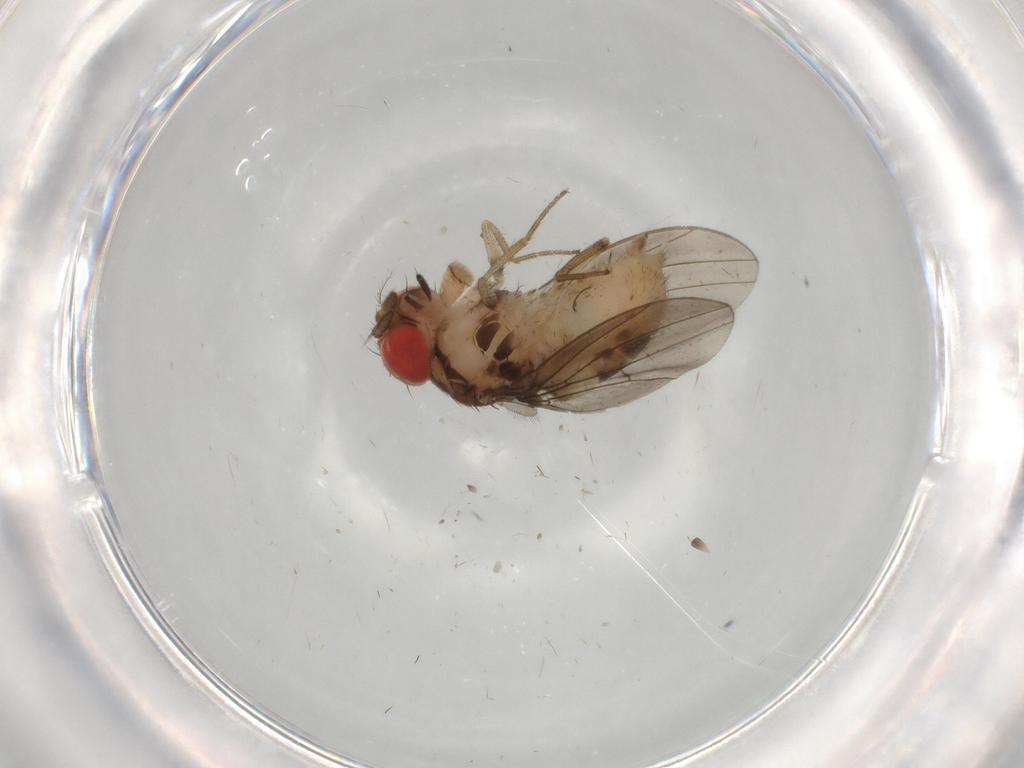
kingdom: Animalia
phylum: Arthropoda
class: Insecta
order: Diptera
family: Drosophilidae
